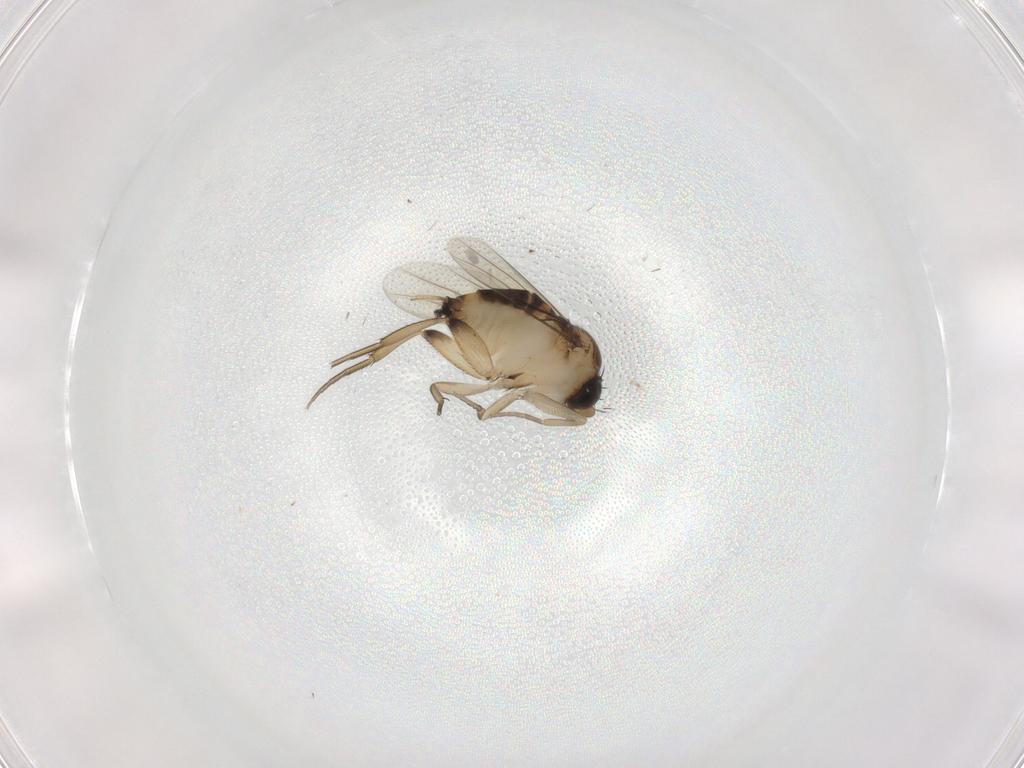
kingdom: Animalia
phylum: Arthropoda
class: Insecta
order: Diptera
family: Phoridae
